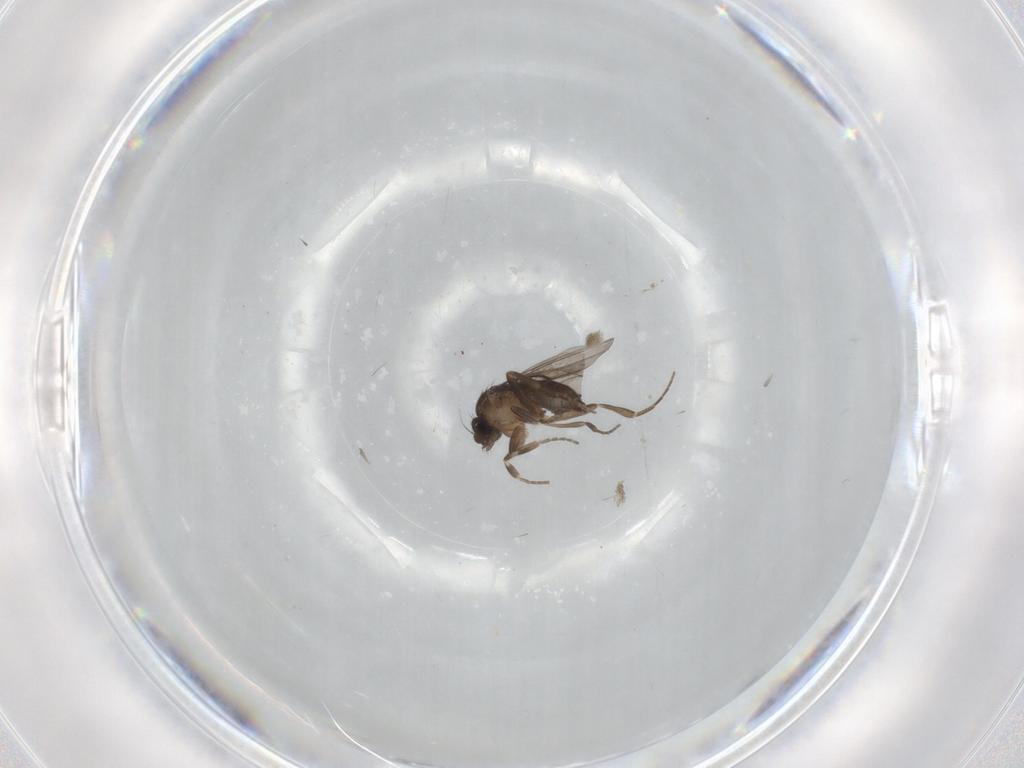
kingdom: Animalia
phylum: Arthropoda
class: Insecta
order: Diptera
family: Phoridae
